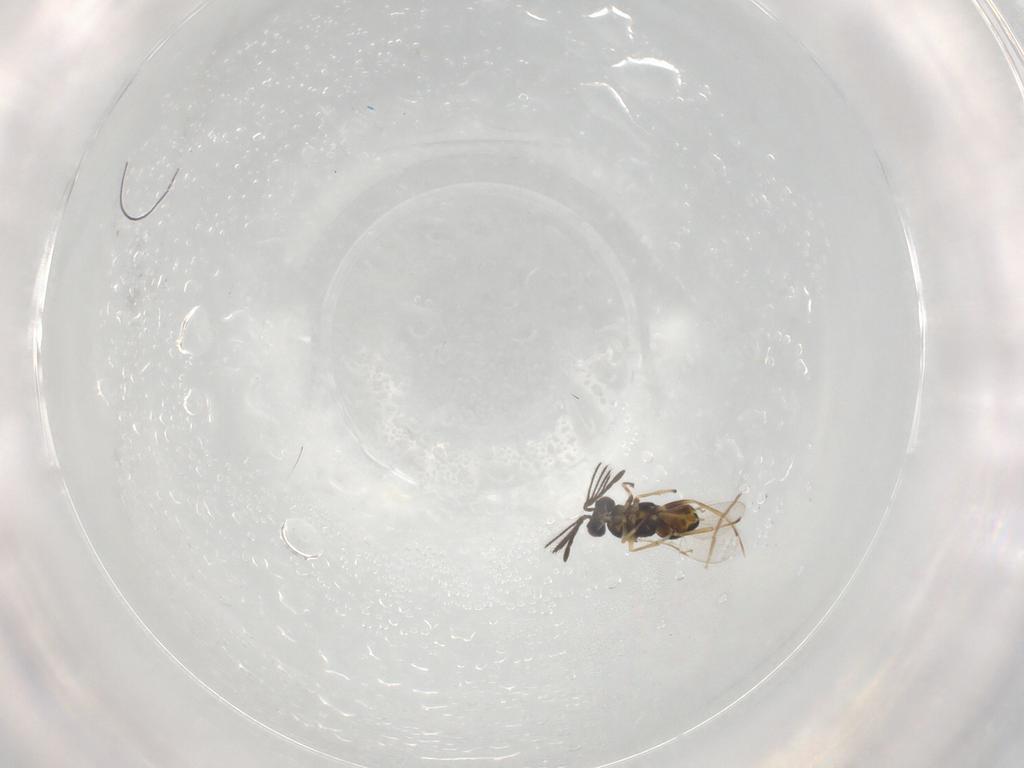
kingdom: Animalia
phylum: Arthropoda
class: Insecta
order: Hymenoptera
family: Encyrtidae
